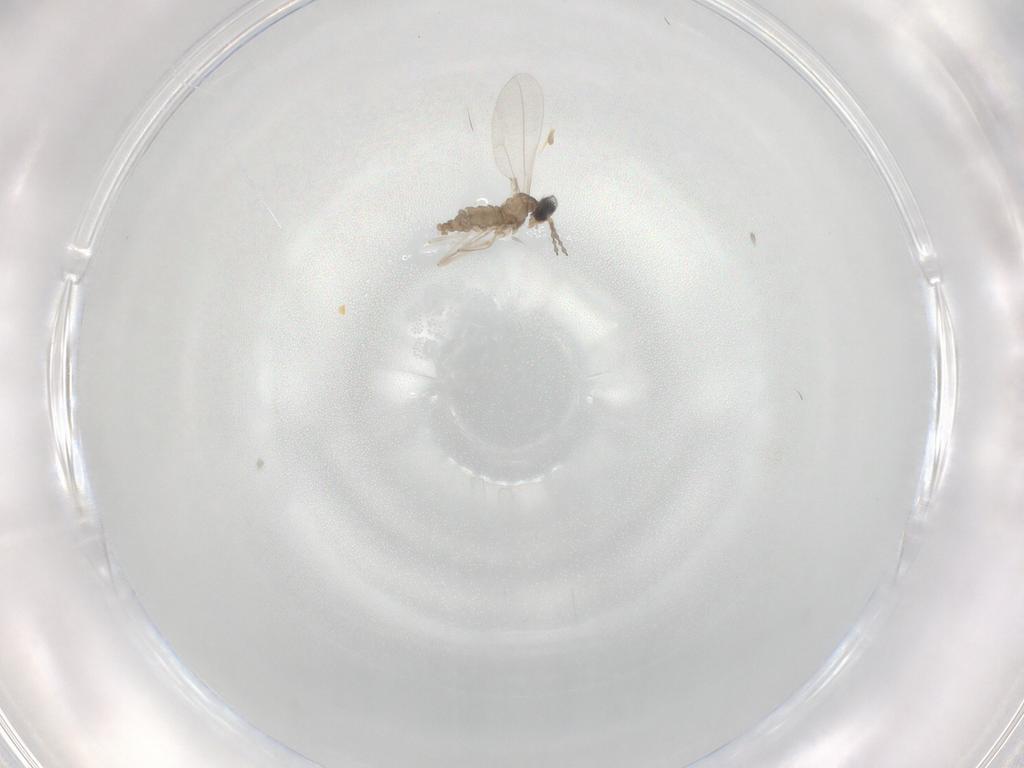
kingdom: Animalia
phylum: Arthropoda
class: Insecta
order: Diptera
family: Cecidomyiidae
